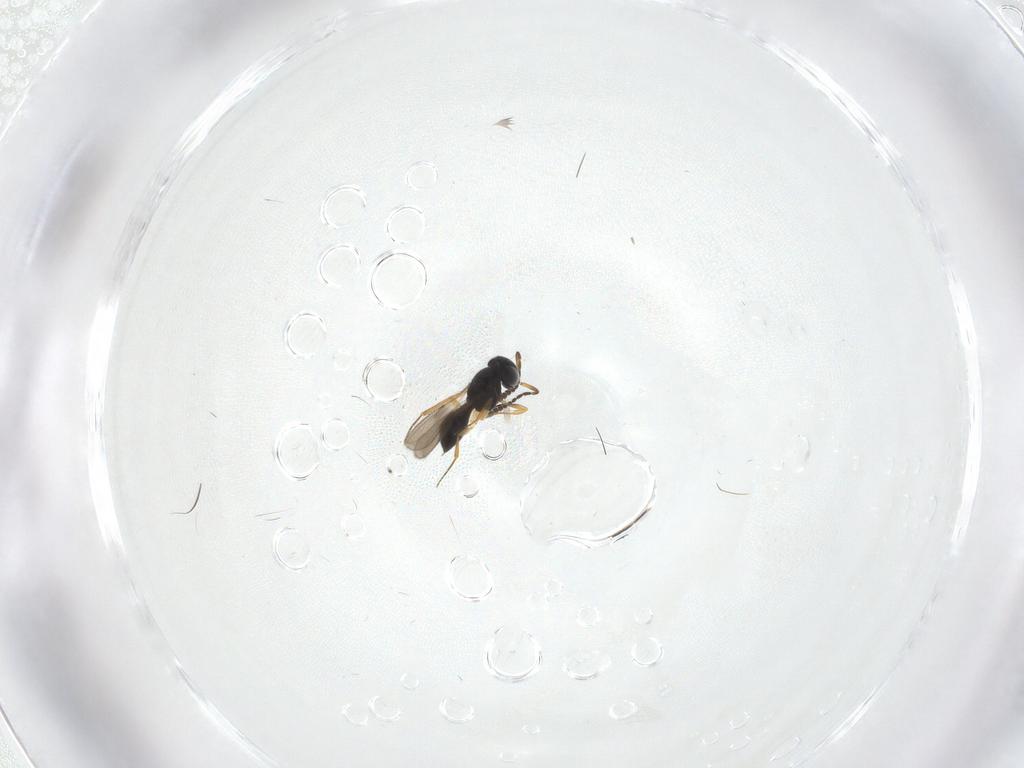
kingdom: Animalia
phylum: Arthropoda
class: Insecta
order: Hymenoptera
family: Scelionidae
